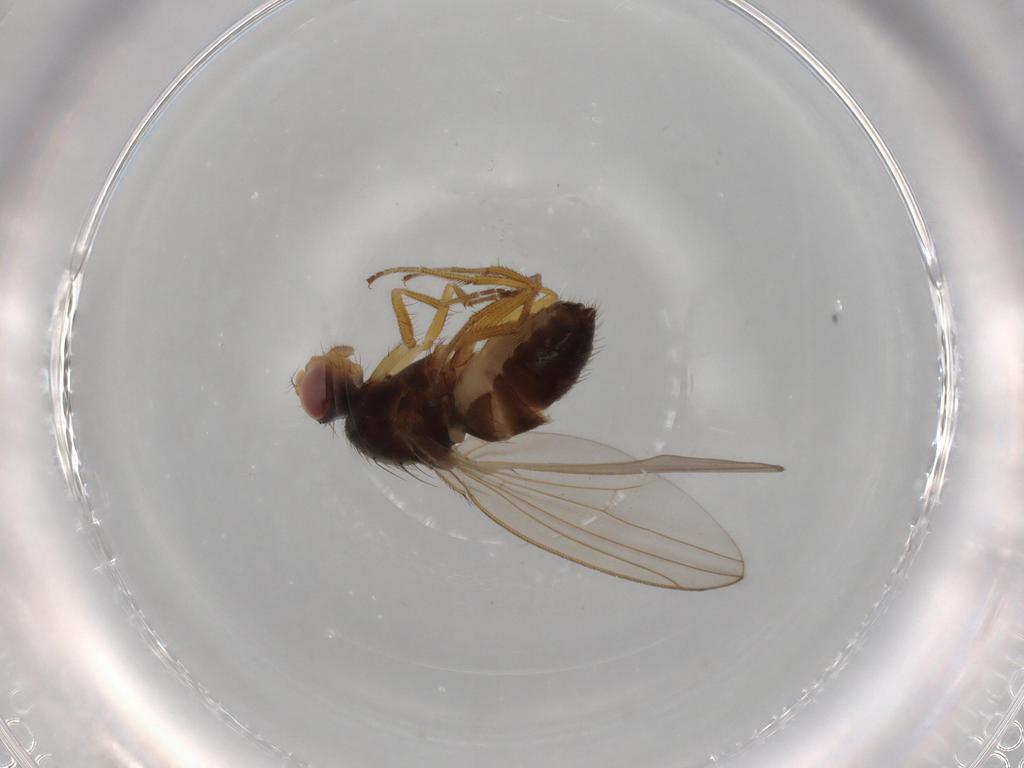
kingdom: Animalia
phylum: Arthropoda
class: Insecta
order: Diptera
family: Drosophilidae
